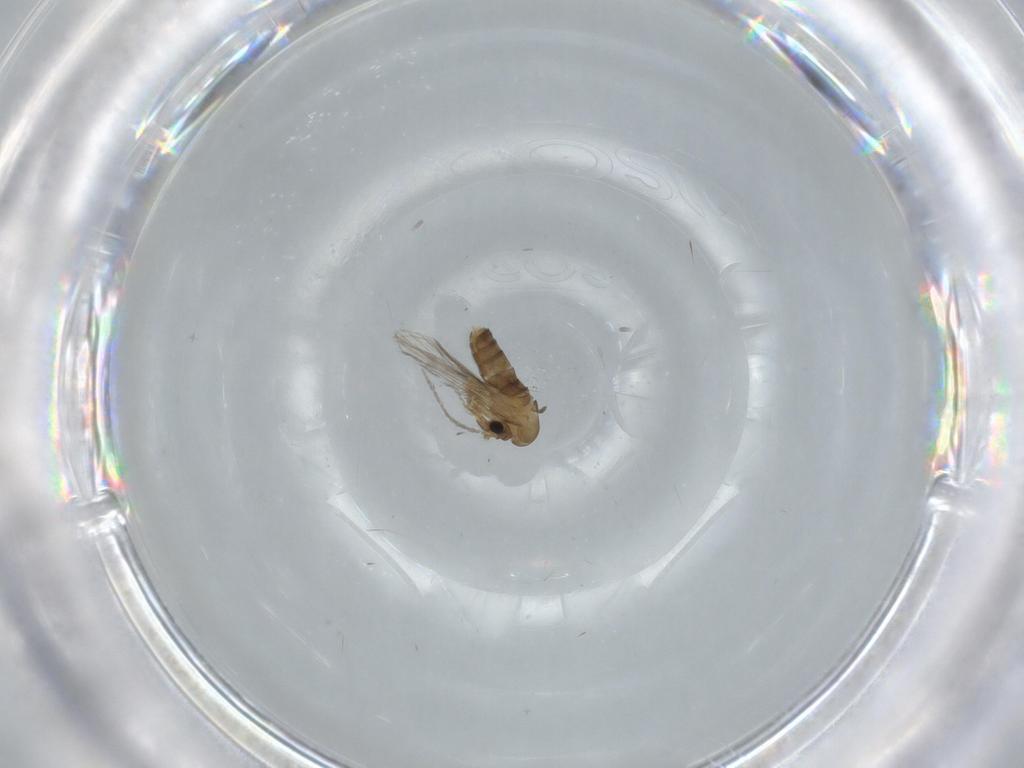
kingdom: Animalia
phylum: Arthropoda
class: Insecta
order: Diptera
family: Psychodidae
